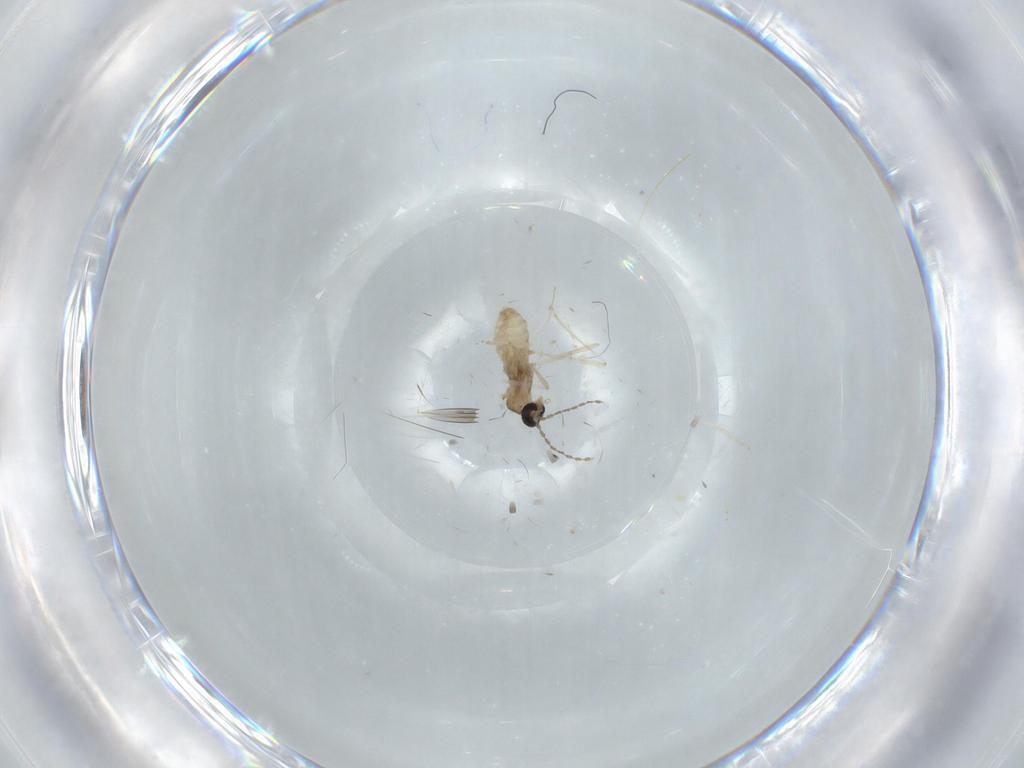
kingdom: Animalia
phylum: Arthropoda
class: Insecta
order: Diptera
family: Cecidomyiidae
